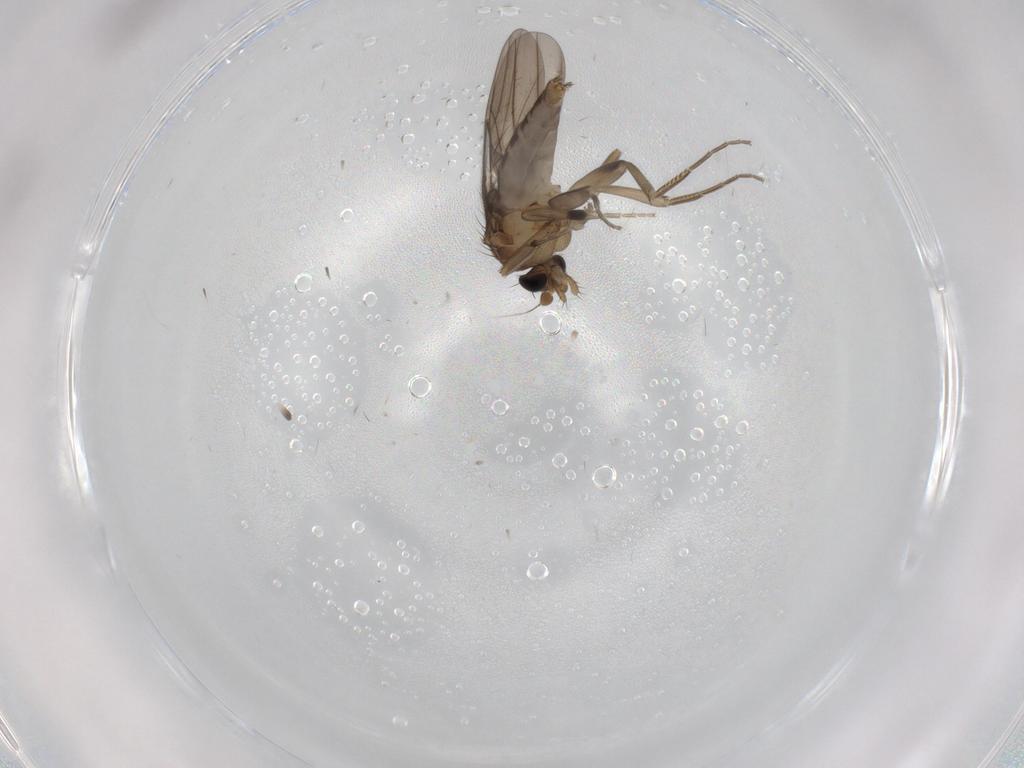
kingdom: Animalia
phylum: Arthropoda
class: Insecta
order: Diptera
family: Phoridae
